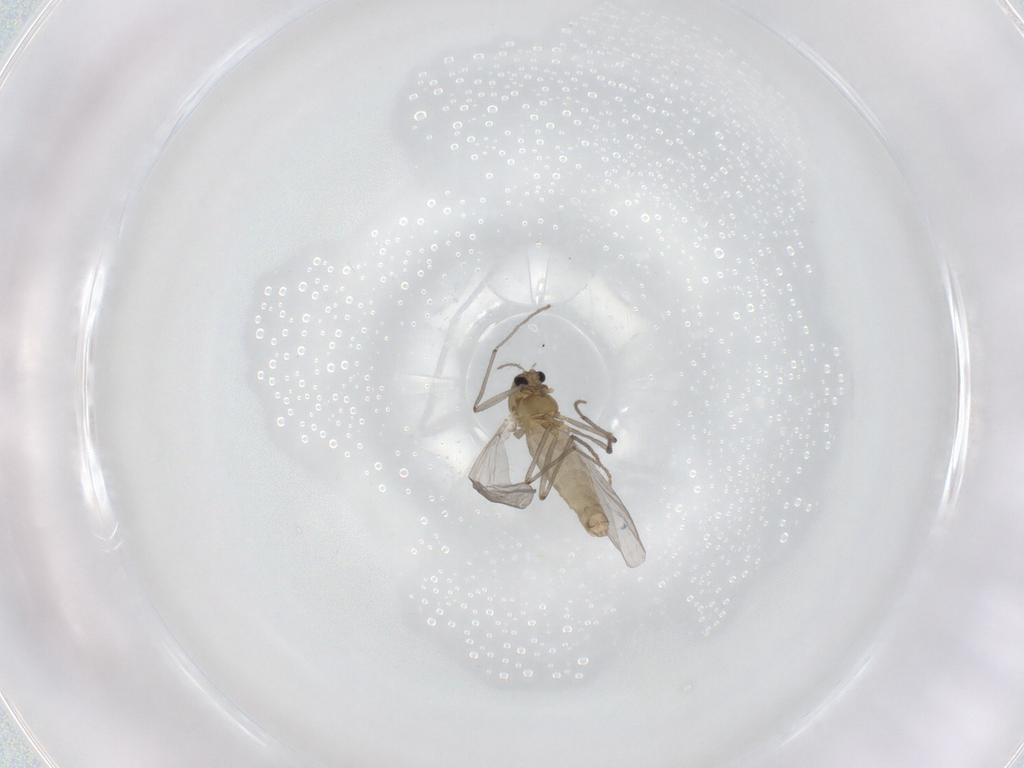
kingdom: Animalia
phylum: Arthropoda
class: Insecta
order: Diptera
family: Chironomidae
